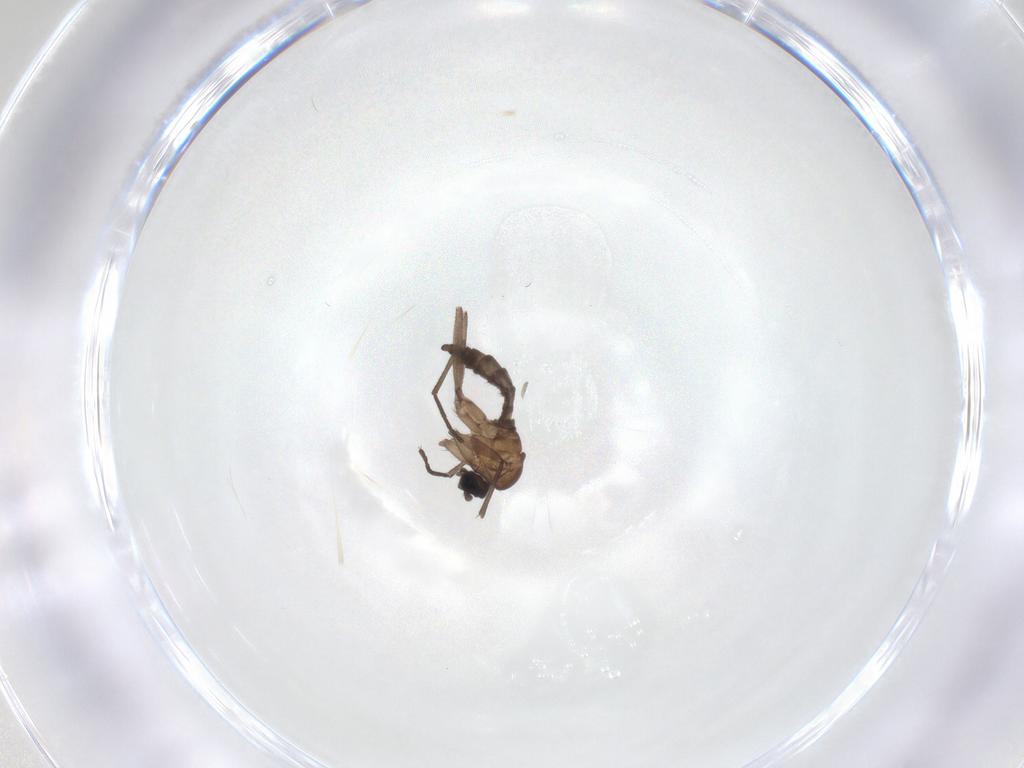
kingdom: Animalia
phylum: Arthropoda
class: Insecta
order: Diptera
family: Sciaridae
